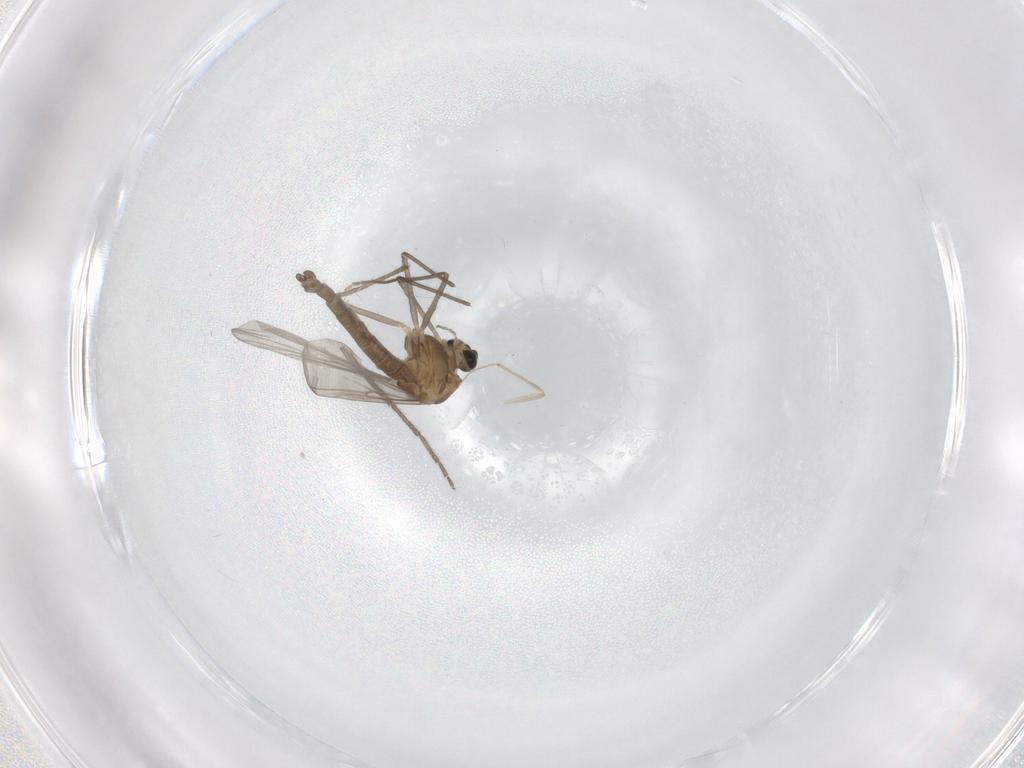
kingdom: Animalia
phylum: Arthropoda
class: Insecta
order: Diptera
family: Chironomidae
